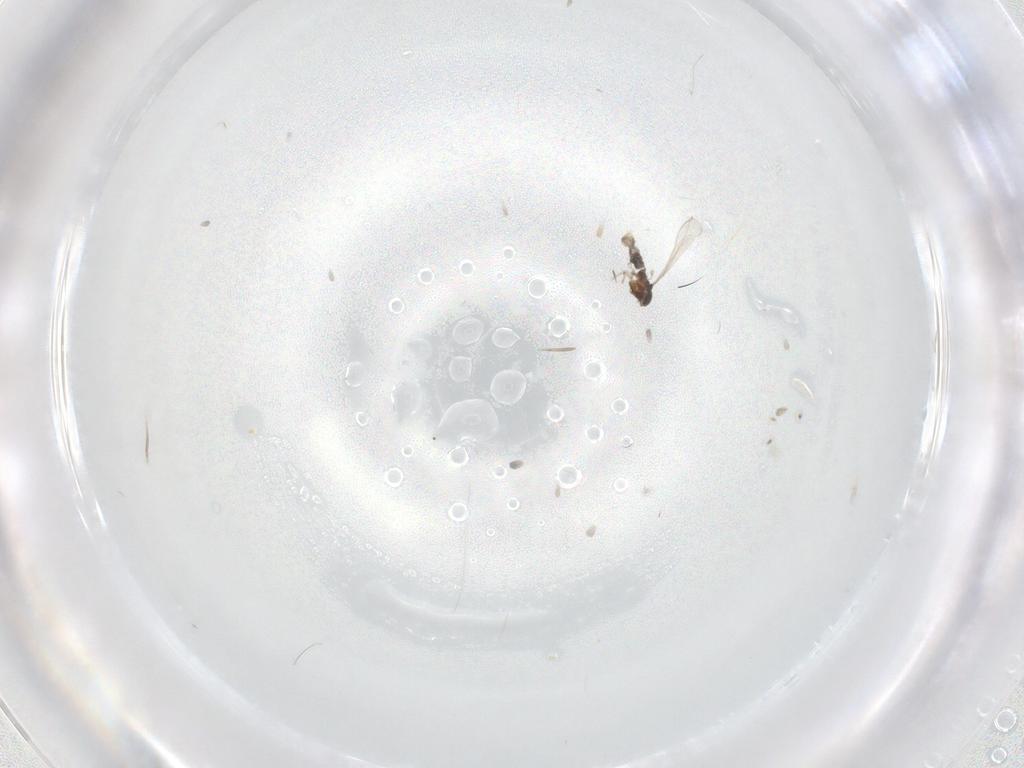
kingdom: Animalia
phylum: Arthropoda
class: Insecta
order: Diptera
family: Cecidomyiidae
